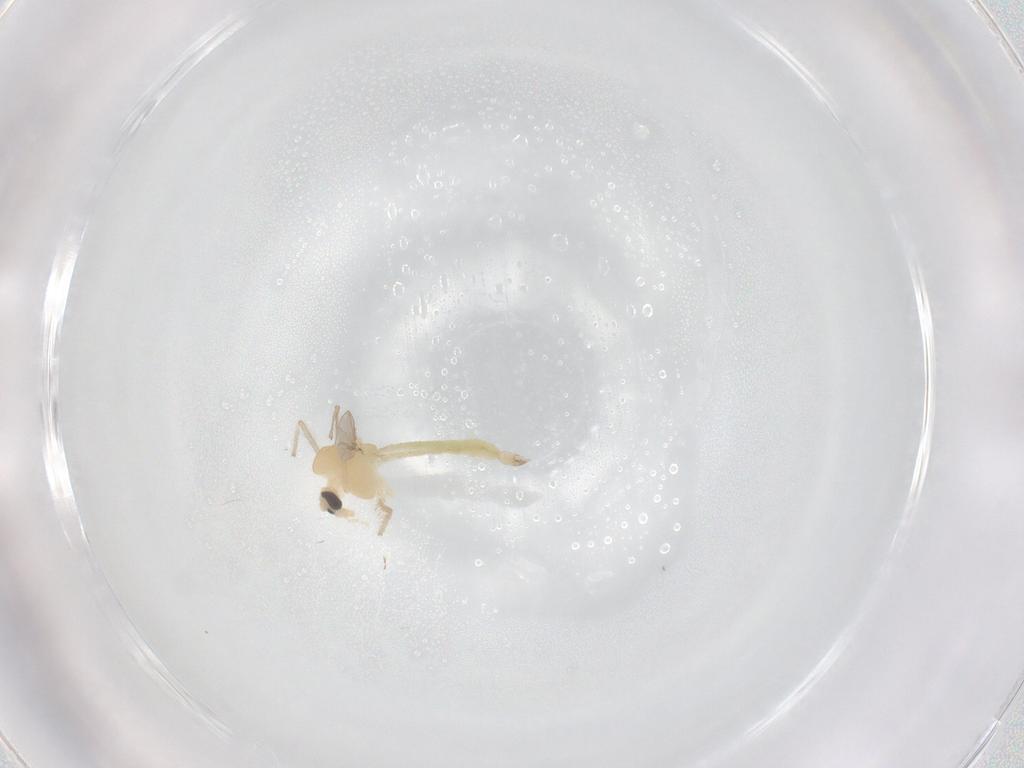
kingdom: Animalia
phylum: Arthropoda
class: Insecta
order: Diptera
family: Chironomidae
